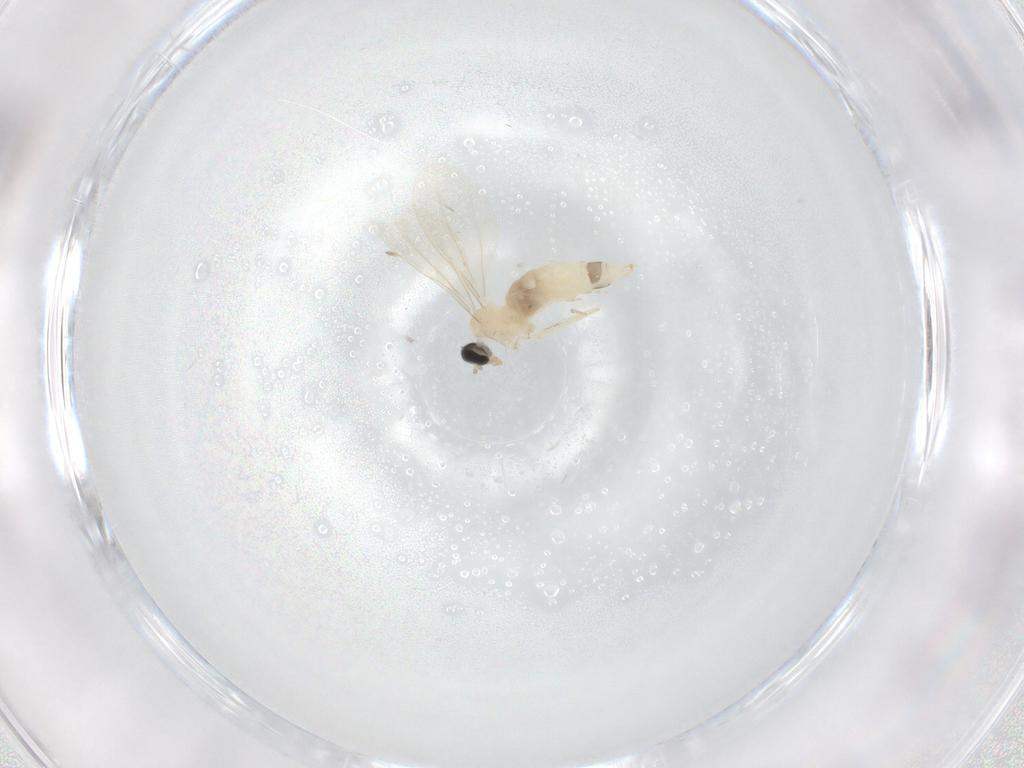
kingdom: Animalia
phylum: Arthropoda
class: Insecta
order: Diptera
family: Cecidomyiidae
